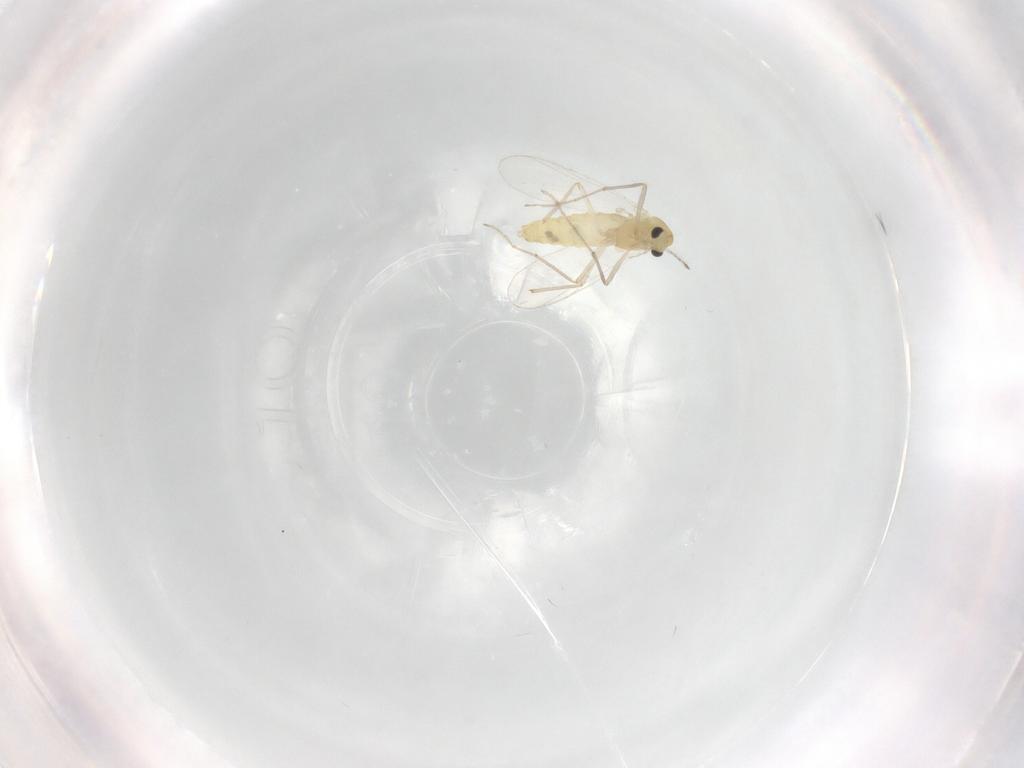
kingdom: Animalia
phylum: Arthropoda
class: Insecta
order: Diptera
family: Chironomidae
